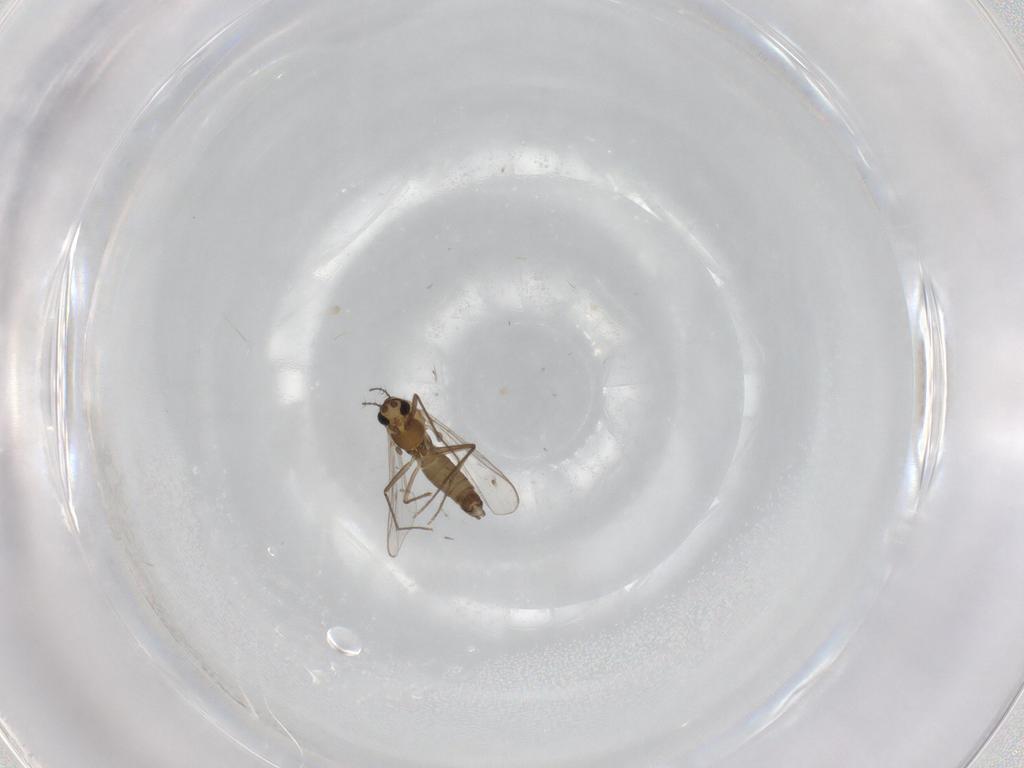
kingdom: Animalia
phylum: Arthropoda
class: Insecta
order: Diptera
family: Chironomidae
